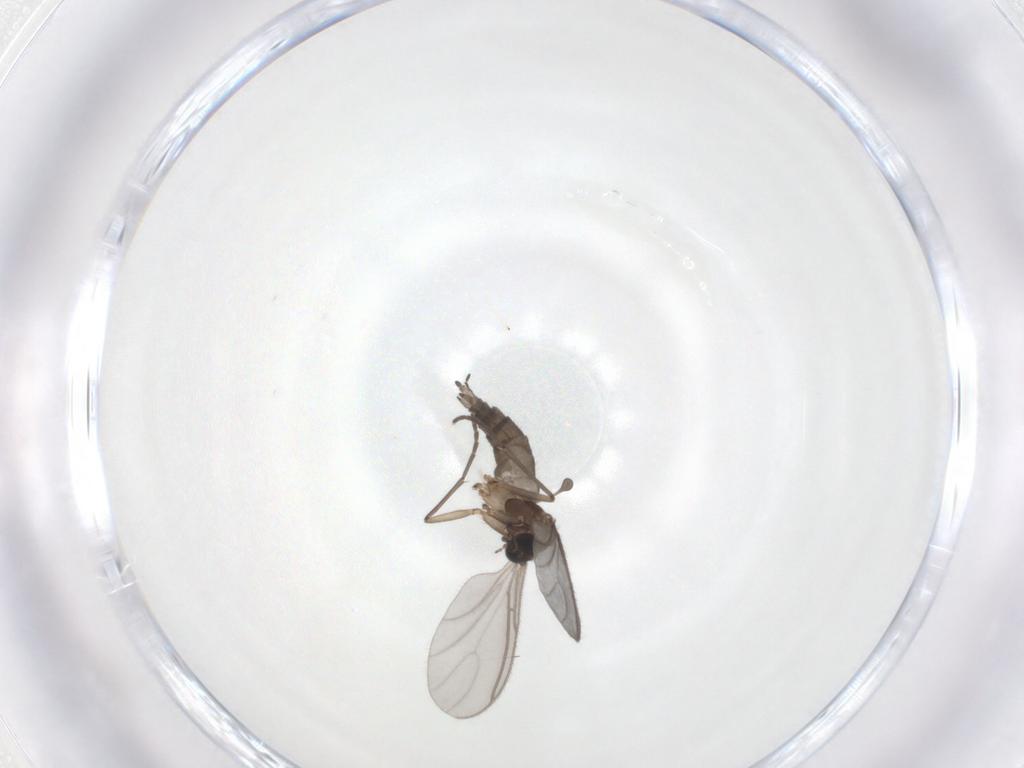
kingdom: Animalia
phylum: Arthropoda
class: Insecta
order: Diptera
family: Sciaridae
